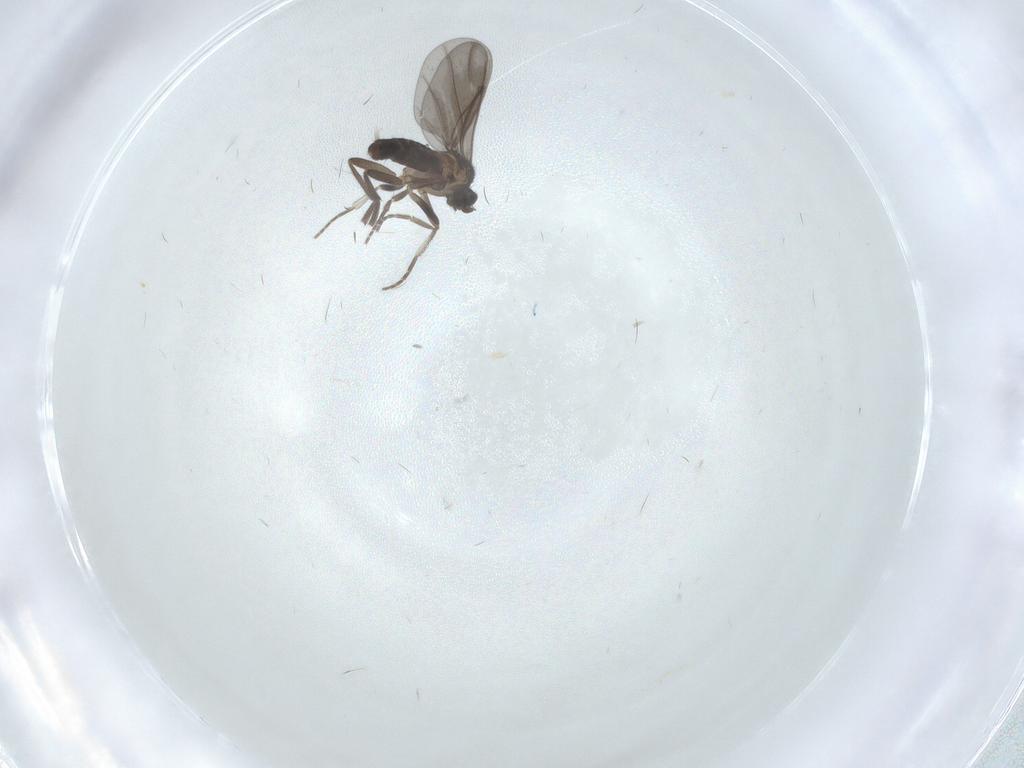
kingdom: Animalia
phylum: Arthropoda
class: Insecta
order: Diptera
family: Phoridae
